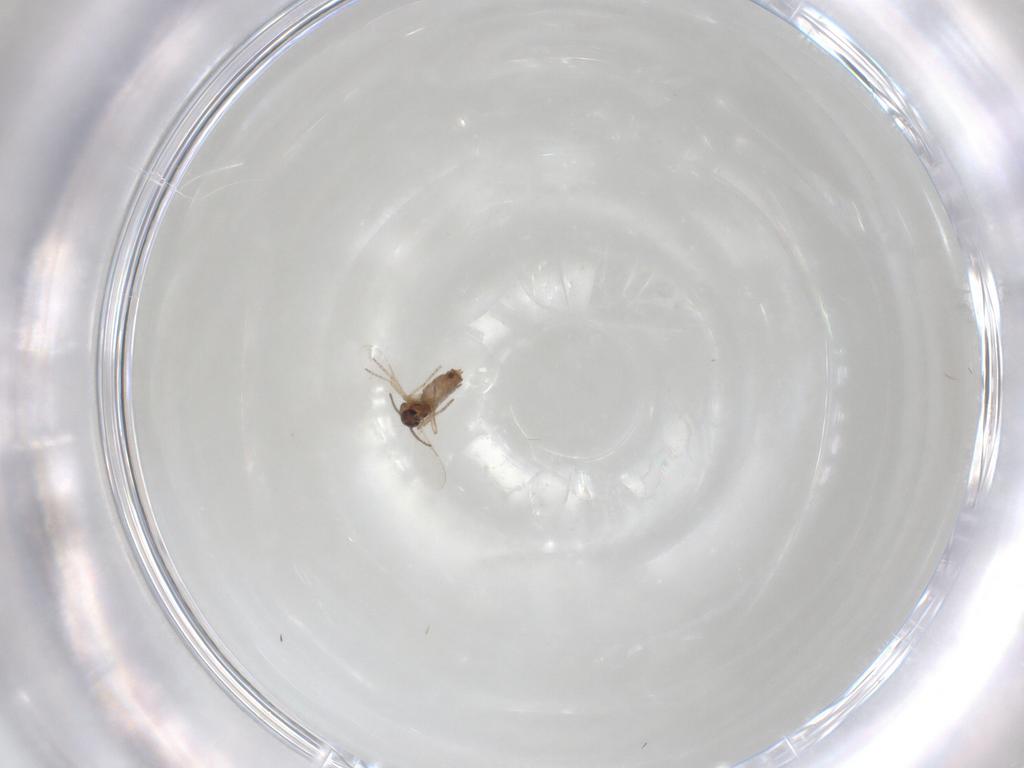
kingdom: Animalia
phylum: Arthropoda
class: Insecta
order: Diptera
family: Ceratopogonidae
